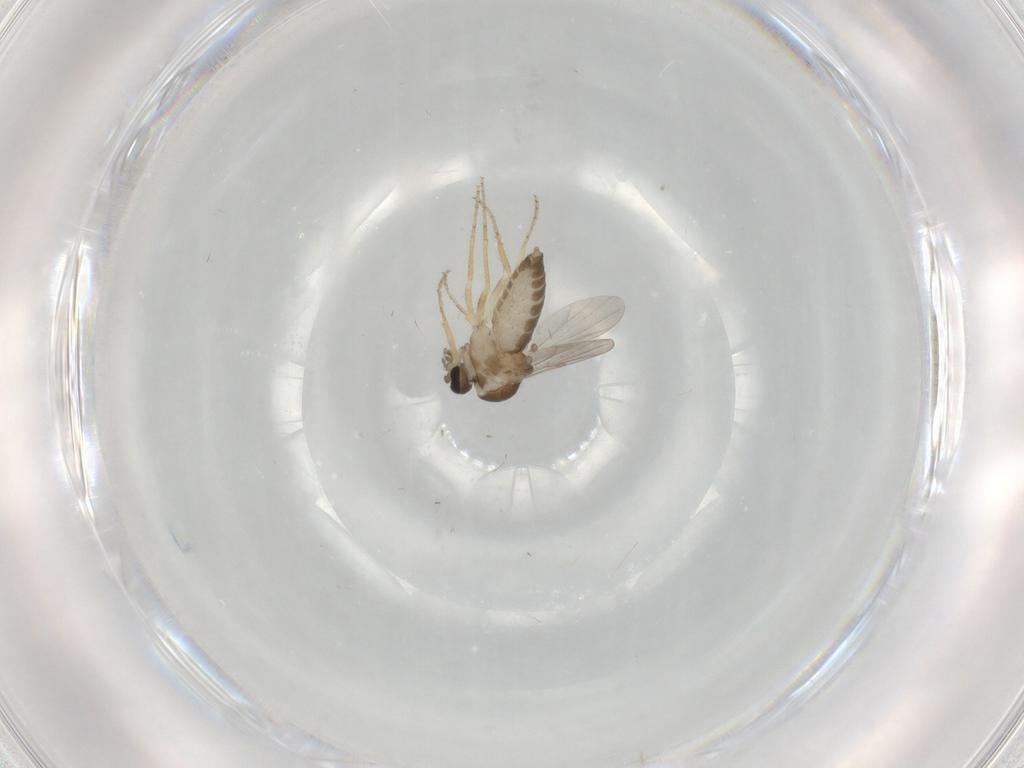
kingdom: Animalia
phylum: Arthropoda
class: Insecta
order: Diptera
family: Ceratopogonidae
